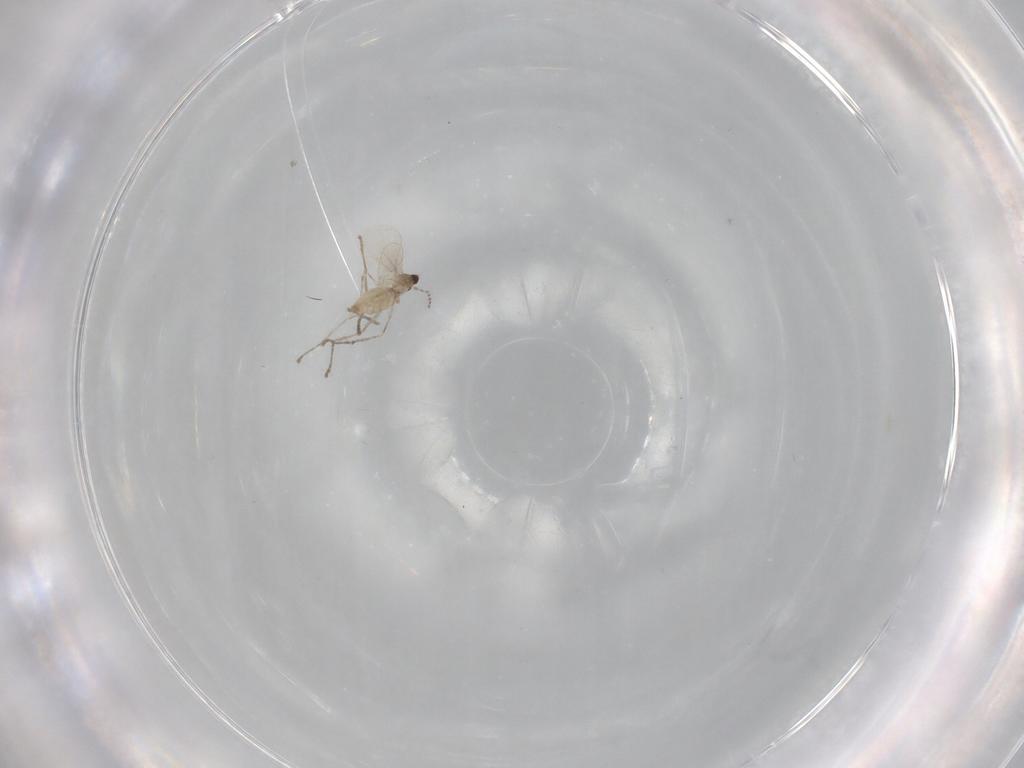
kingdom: Animalia
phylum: Arthropoda
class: Insecta
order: Diptera
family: Cecidomyiidae
